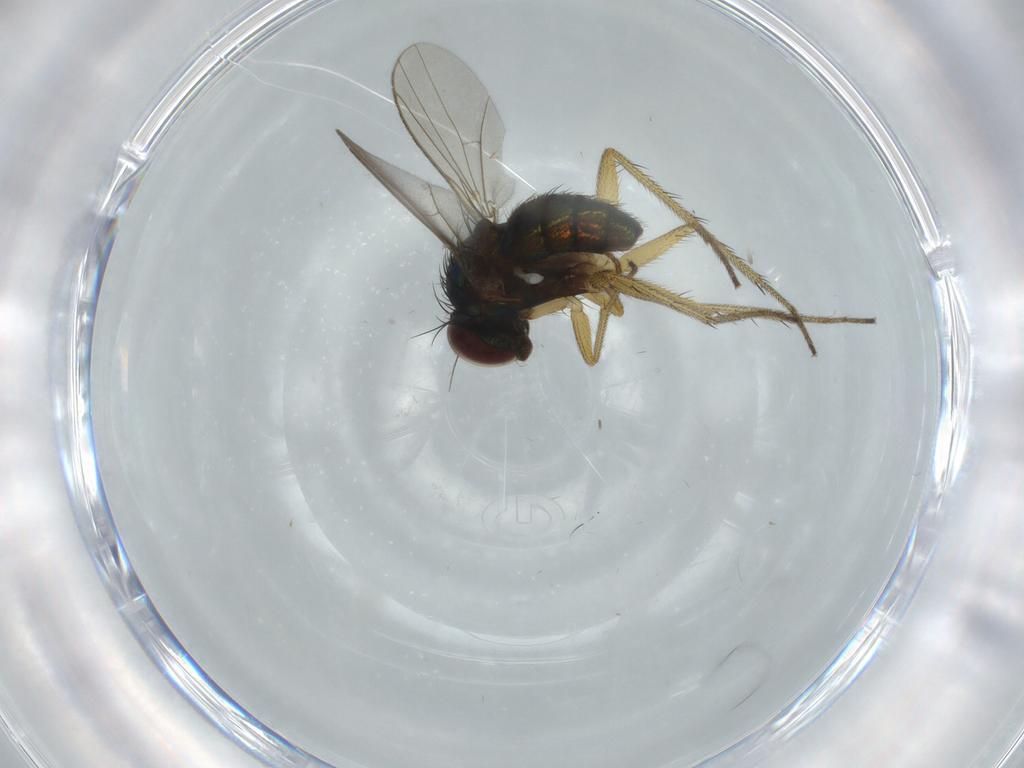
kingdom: Animalia
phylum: Arthropoda
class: Insecta
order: Diptera
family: Dolichopodidae
